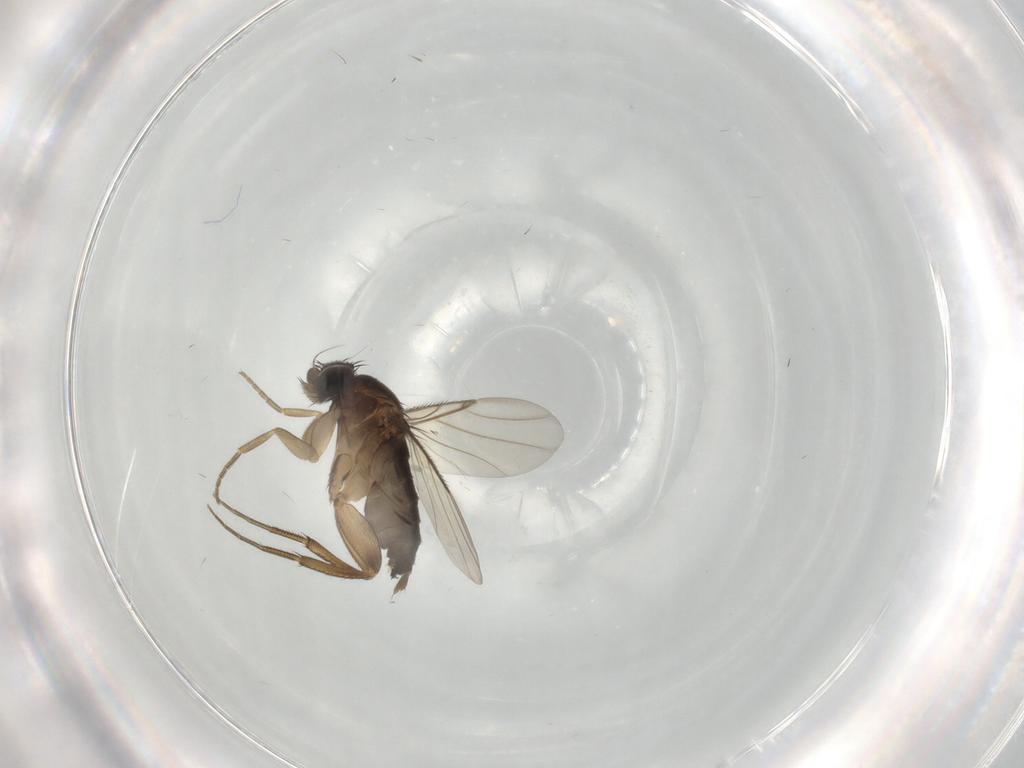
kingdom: Animalia
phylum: Arthropoda
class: Insecta
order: Diptera
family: Phoridae
